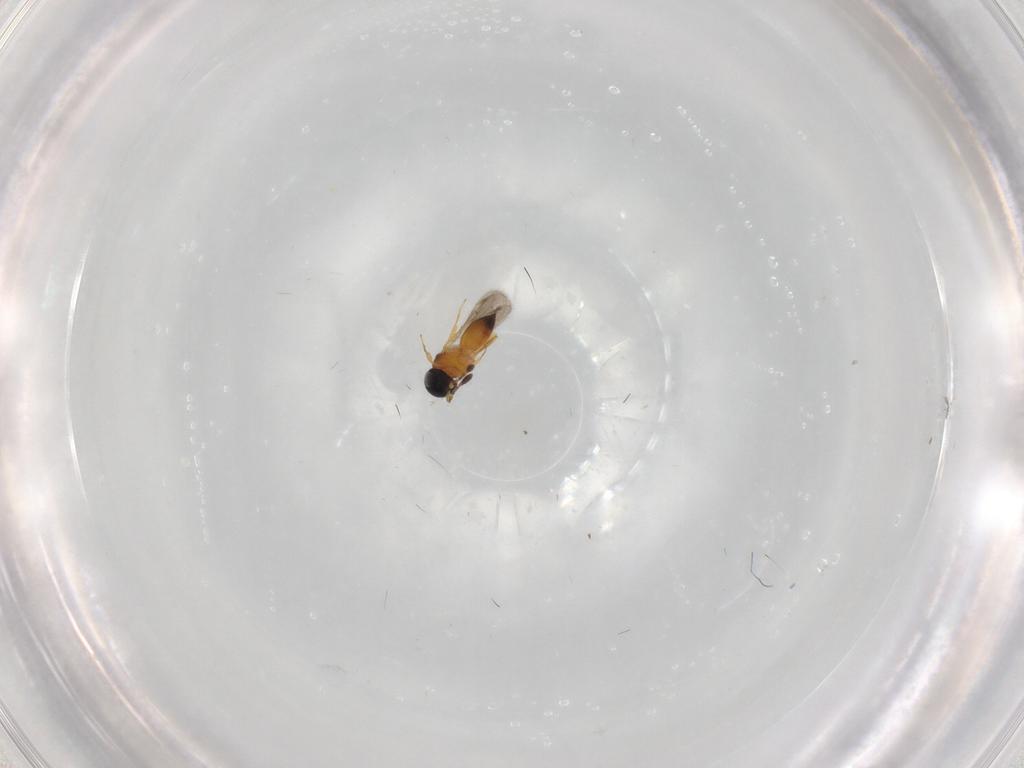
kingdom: Animalia
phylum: Arthropoda
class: Insecta
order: Hymenoptera
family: Scelionidae
